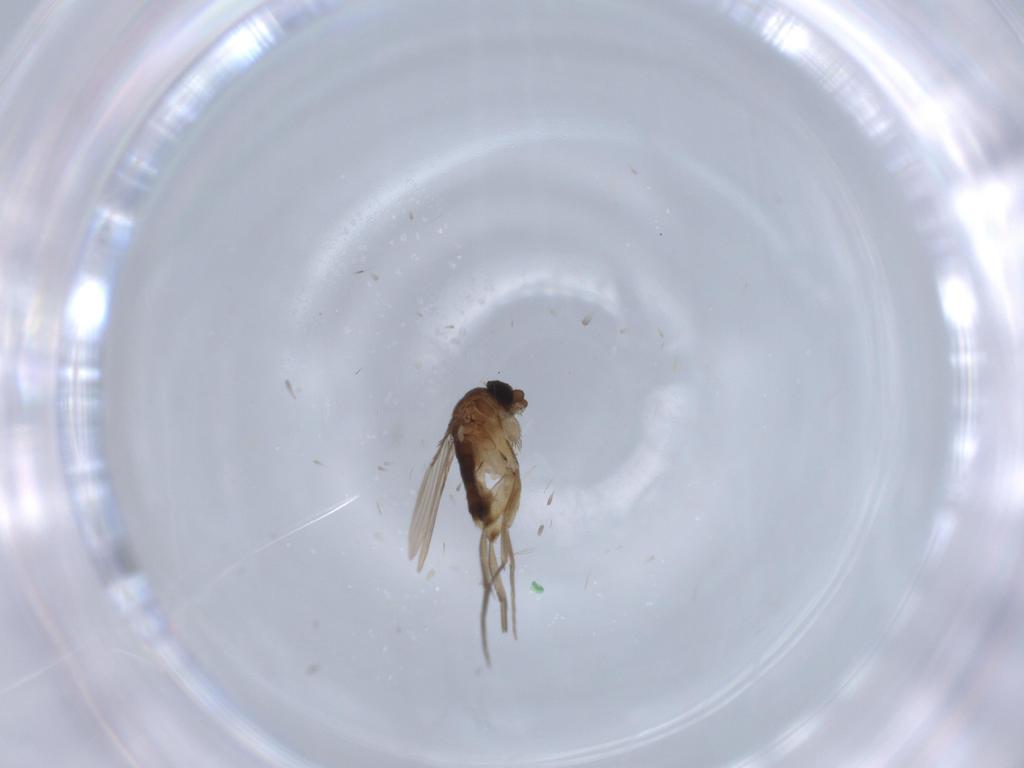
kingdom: Animalia
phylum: Arthropoda
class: Insecta
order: Diptera
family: Phoridae
